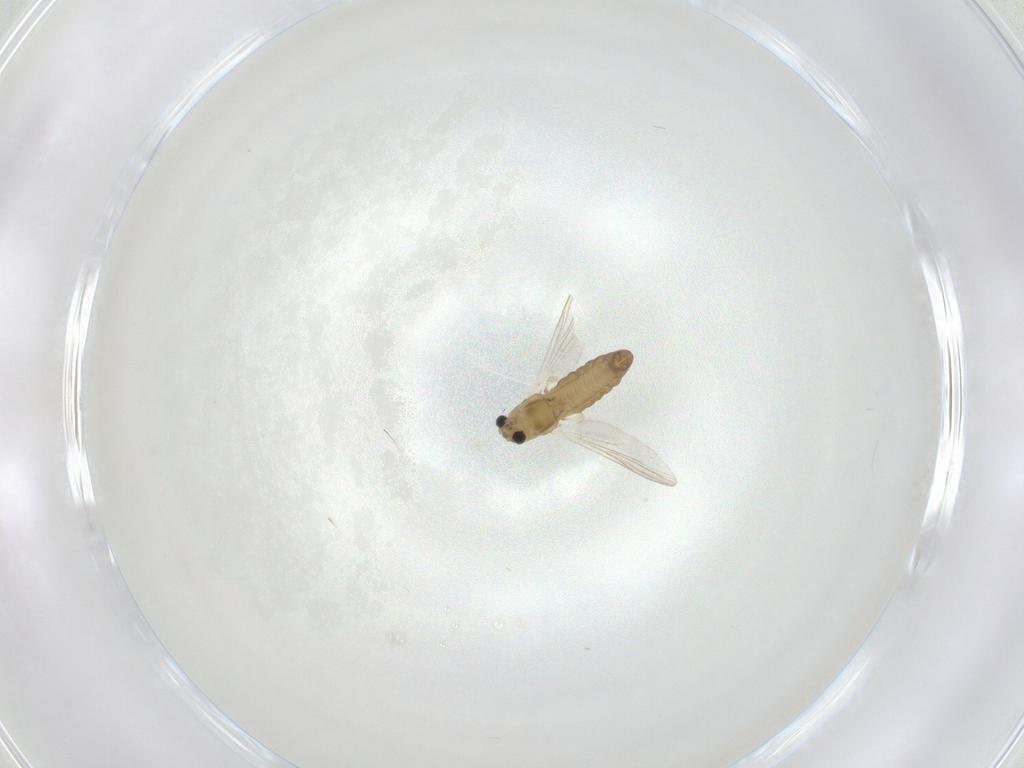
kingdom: Animalia
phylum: Arthropoda
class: Insecta
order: Diptera
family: Chironomidae
